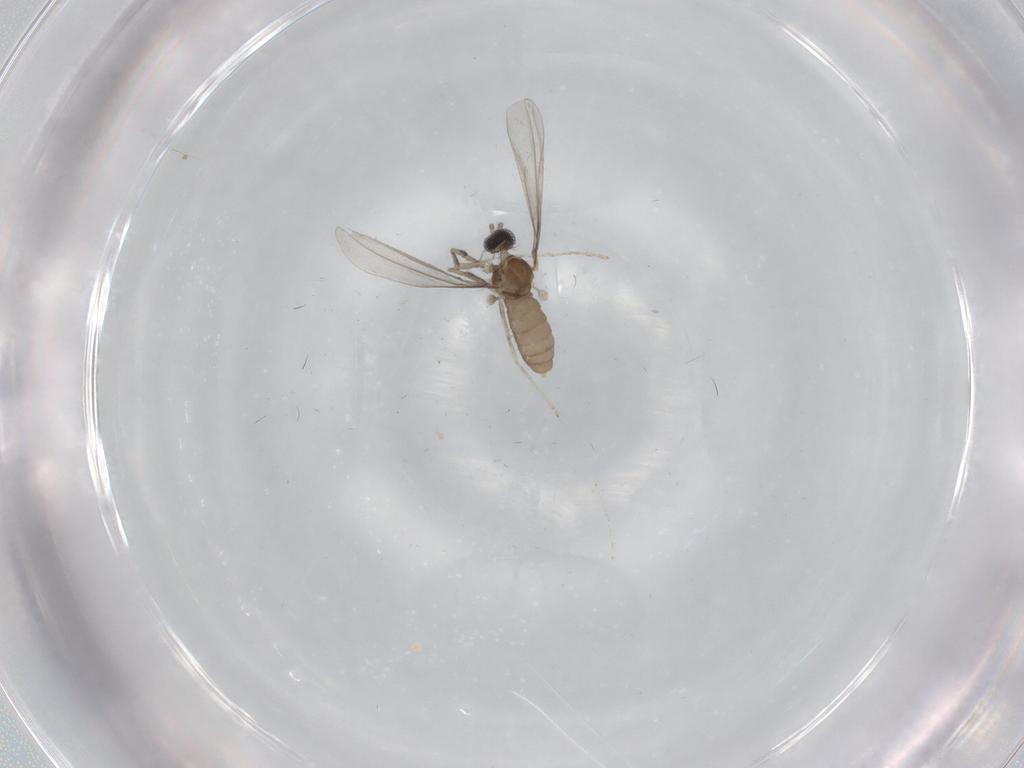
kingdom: Animalia
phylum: Arthropoda
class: Insecta
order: Diptera
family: Cecidomyiidae
